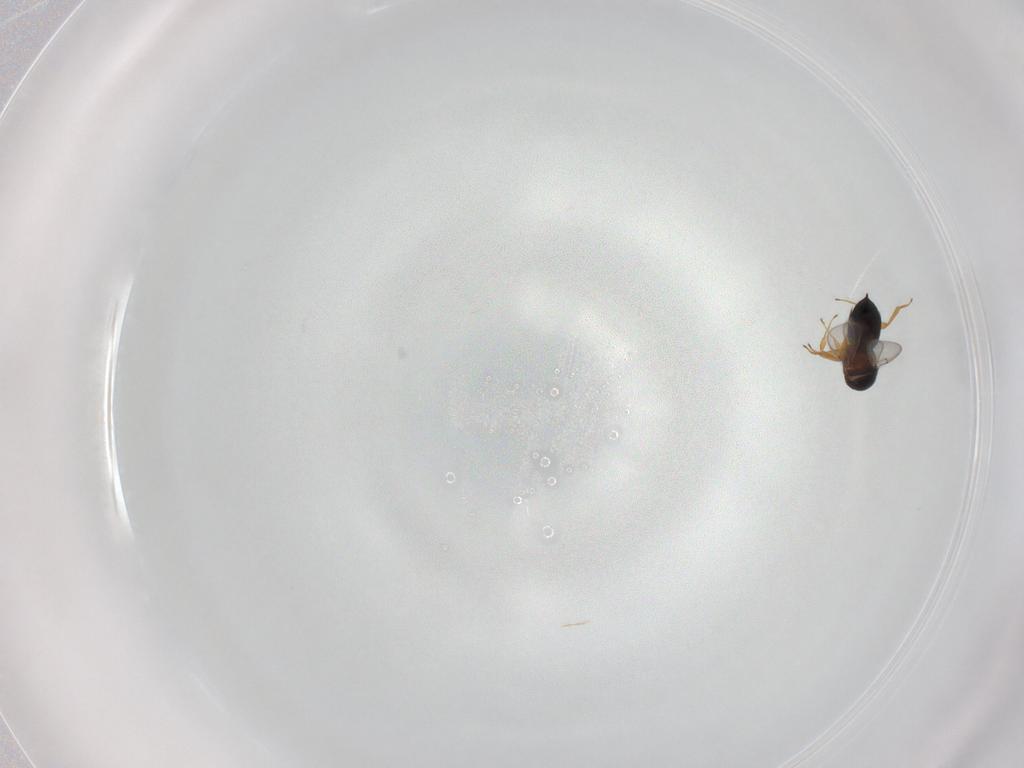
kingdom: Animalia
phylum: Arthropoda
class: Insecta
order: Hymenoptera
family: Scelionidae
